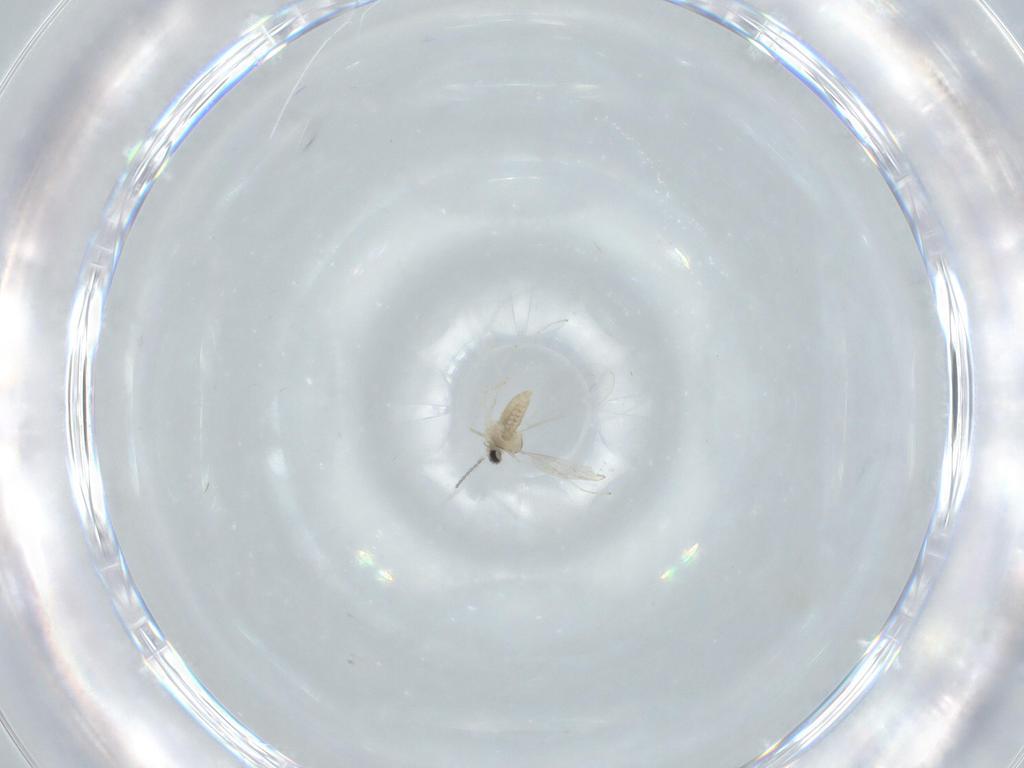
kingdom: Animalia
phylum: Arthropoda
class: Insecta
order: Diptera
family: Cecidomyiidae
